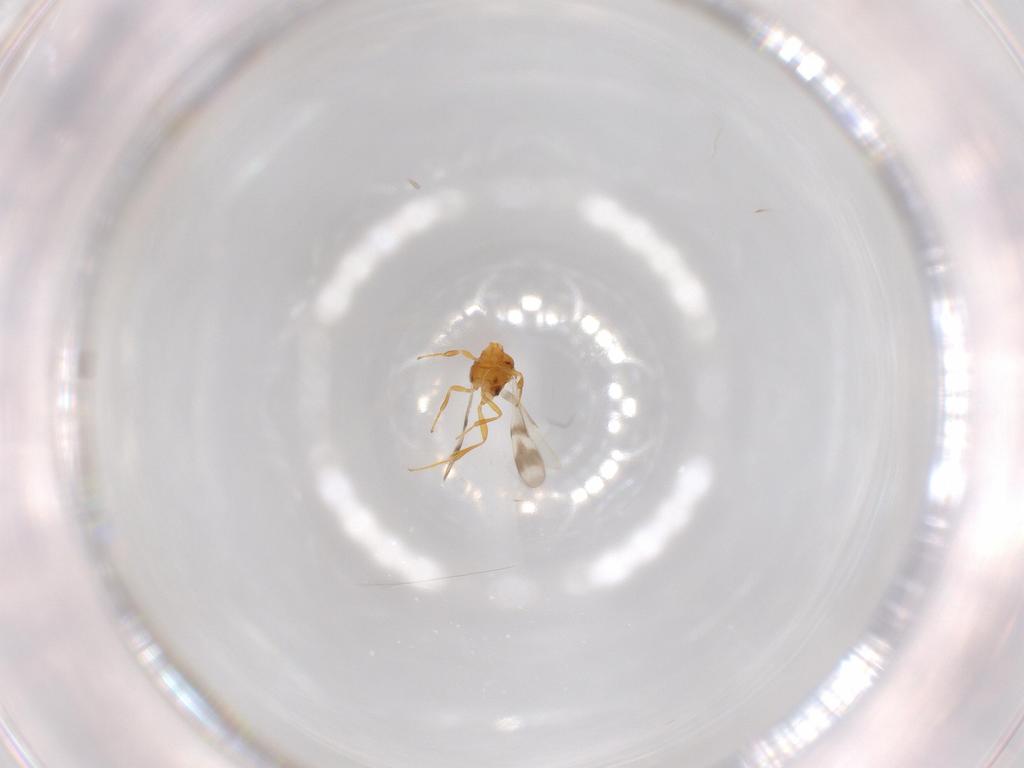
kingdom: Animalia
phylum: Arthropoda
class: Insecta
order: Hymenoptera
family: Scelionidae
